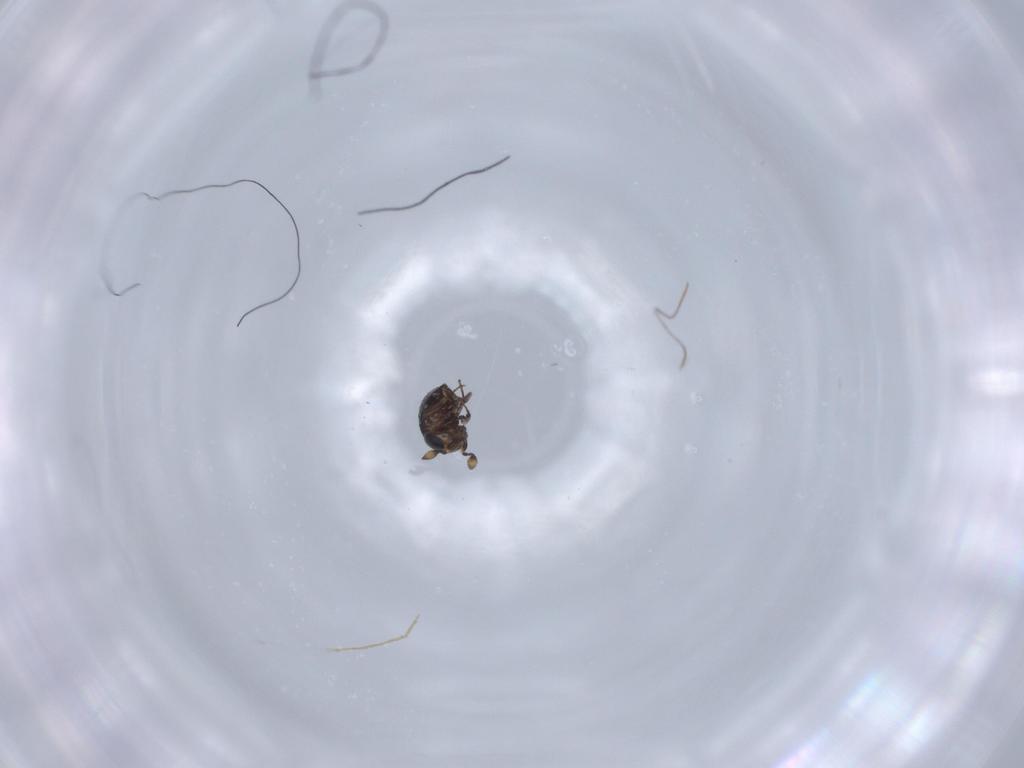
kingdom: Animalia
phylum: Arthropoda
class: Insecta
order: Hymenoptera
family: Scelionidae
